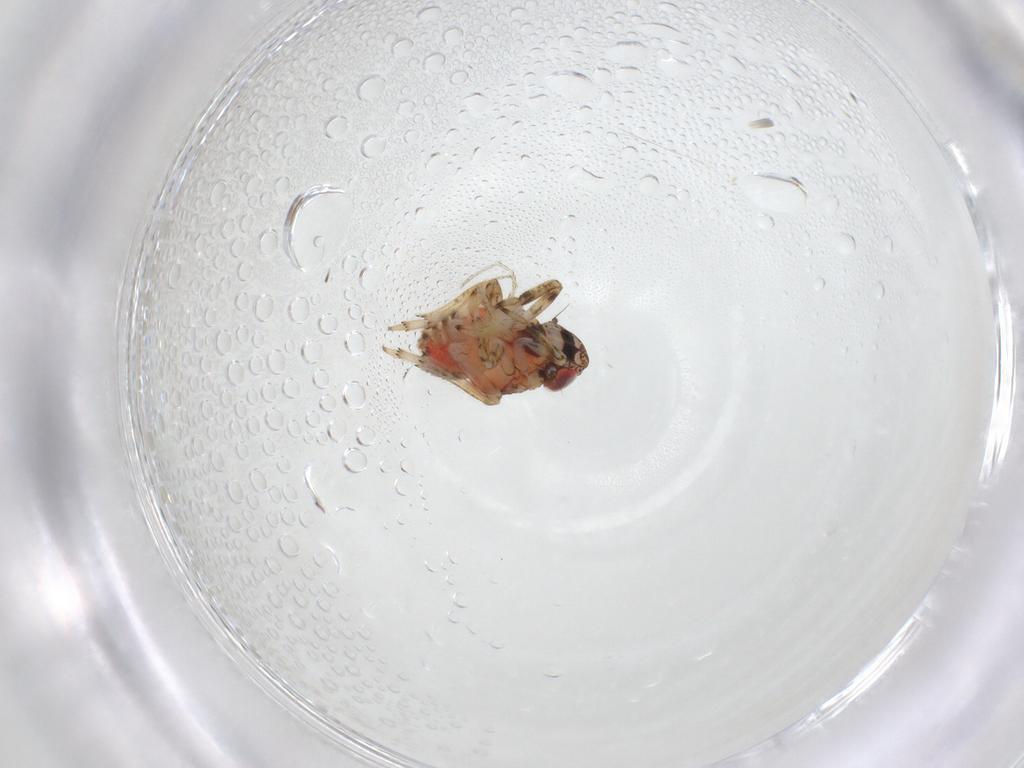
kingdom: Animalia
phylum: Arthropoda
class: Insecta
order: Hemiptera
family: Issidae
